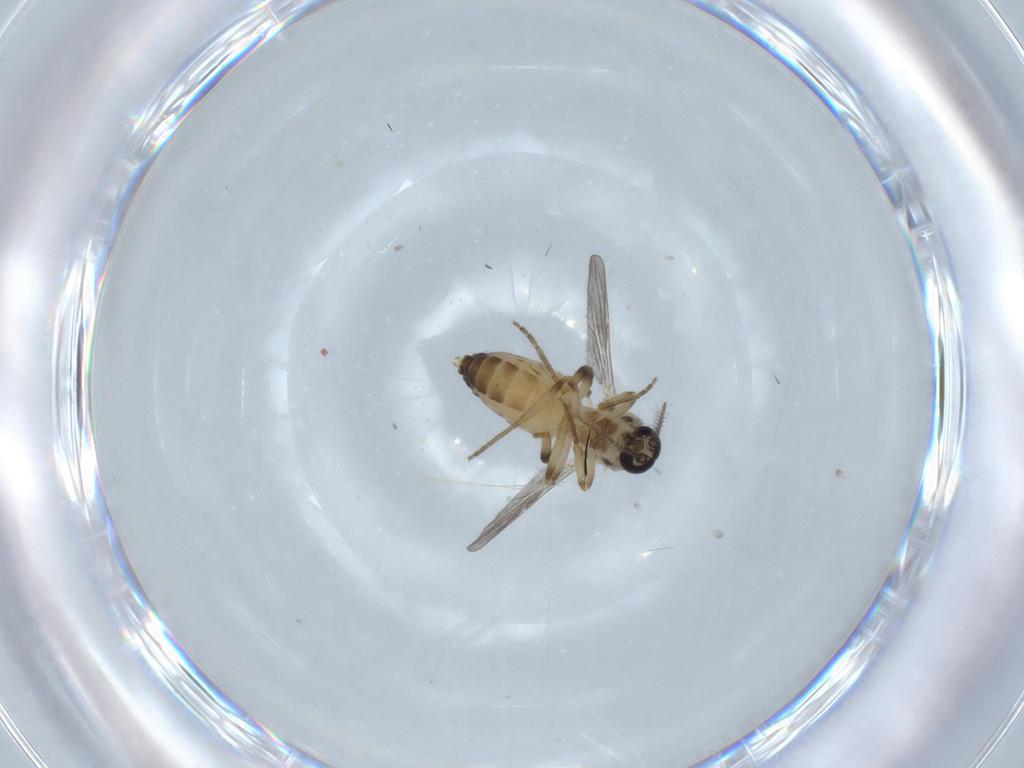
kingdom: Animalia
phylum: Arthropoda
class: Insecta
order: Diptera
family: Ceratopogonidae
